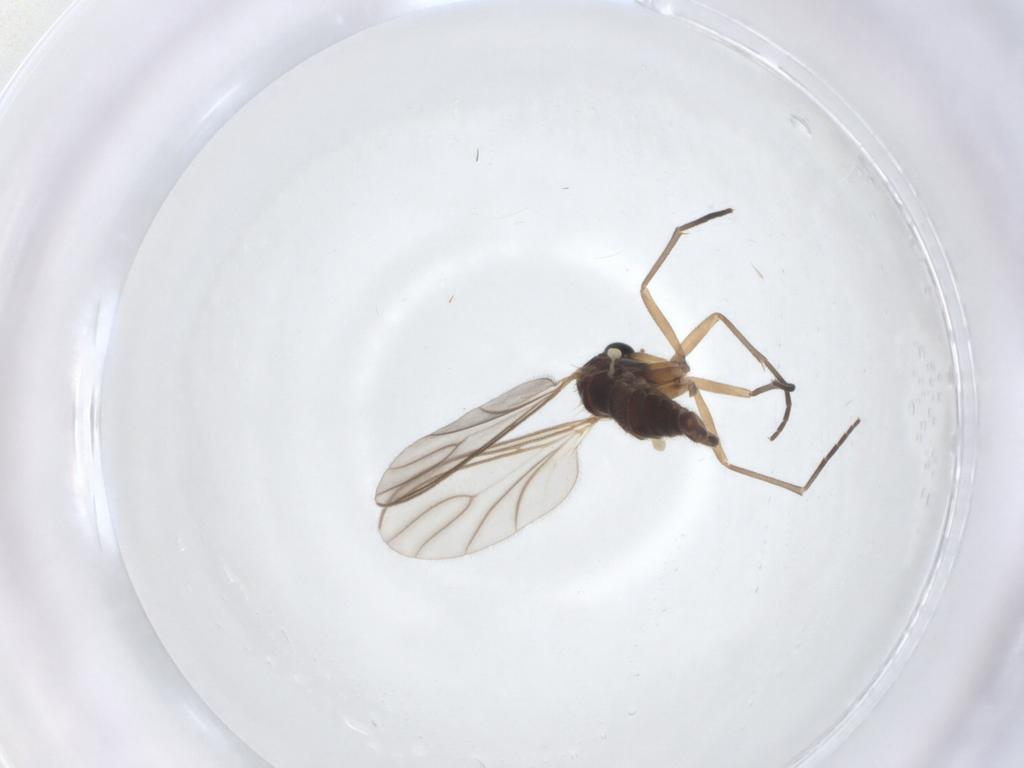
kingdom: Animalia
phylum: Arthropoda
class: Insecta
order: Diptera
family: Sciaridae
